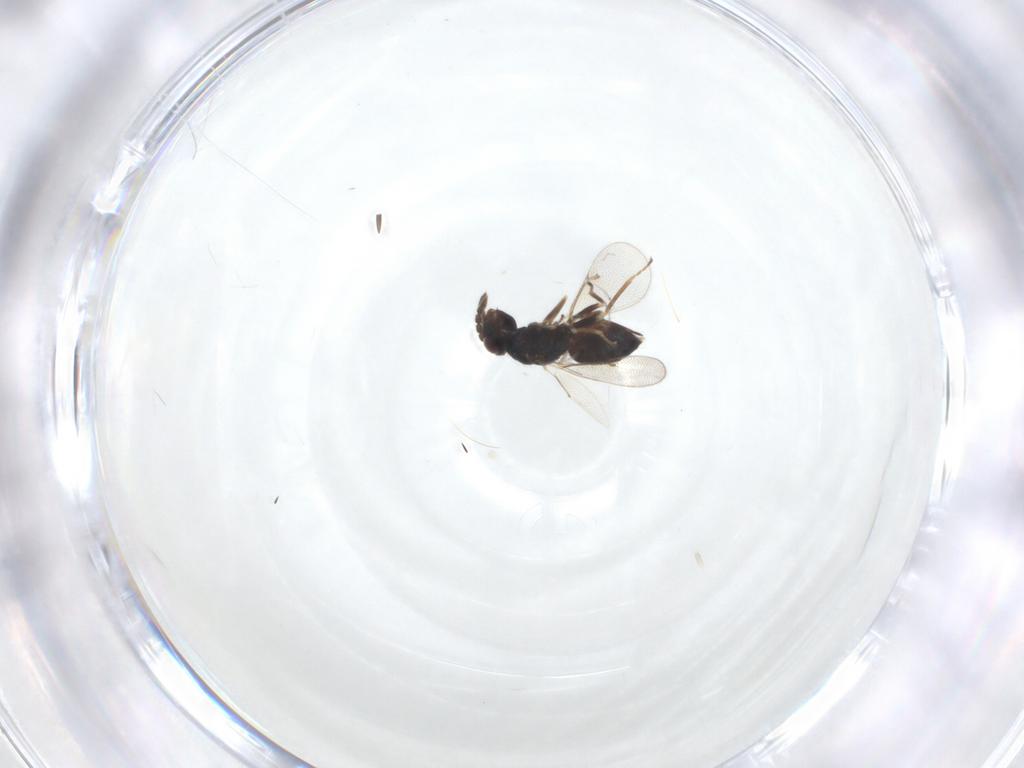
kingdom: Animalia
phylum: Arthropoda
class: Insecta
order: Hymenoptera
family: Eulophidae
